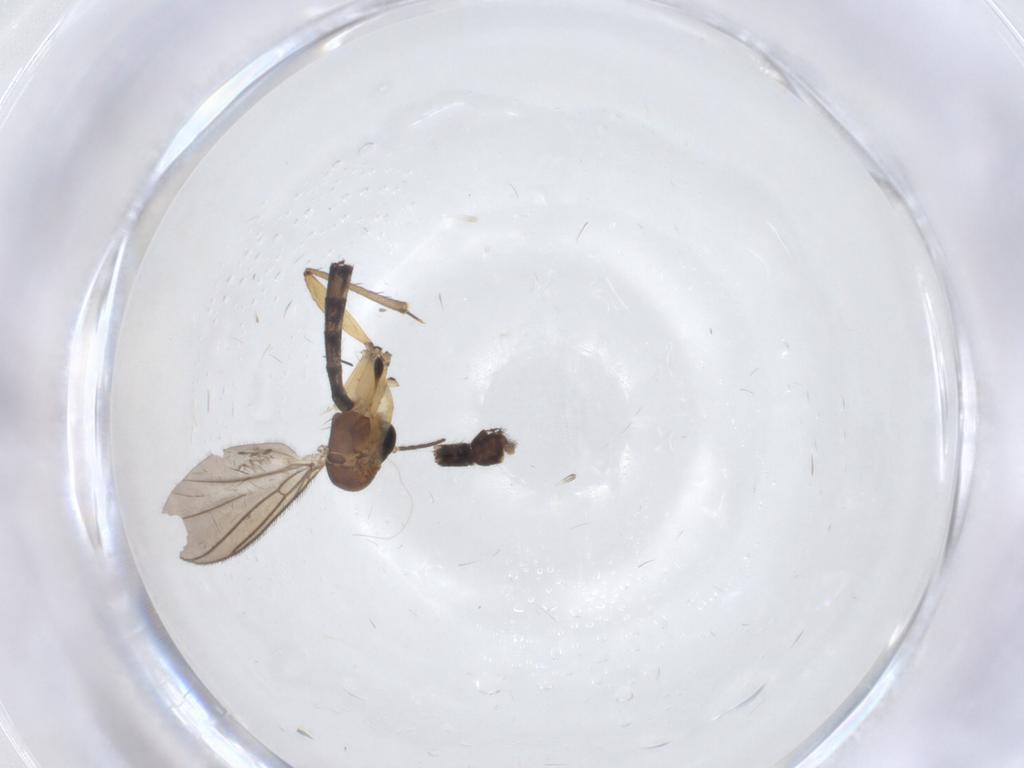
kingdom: Animalia
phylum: Arthropoda
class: Insecta
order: Diptera
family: Mycetophilidae
